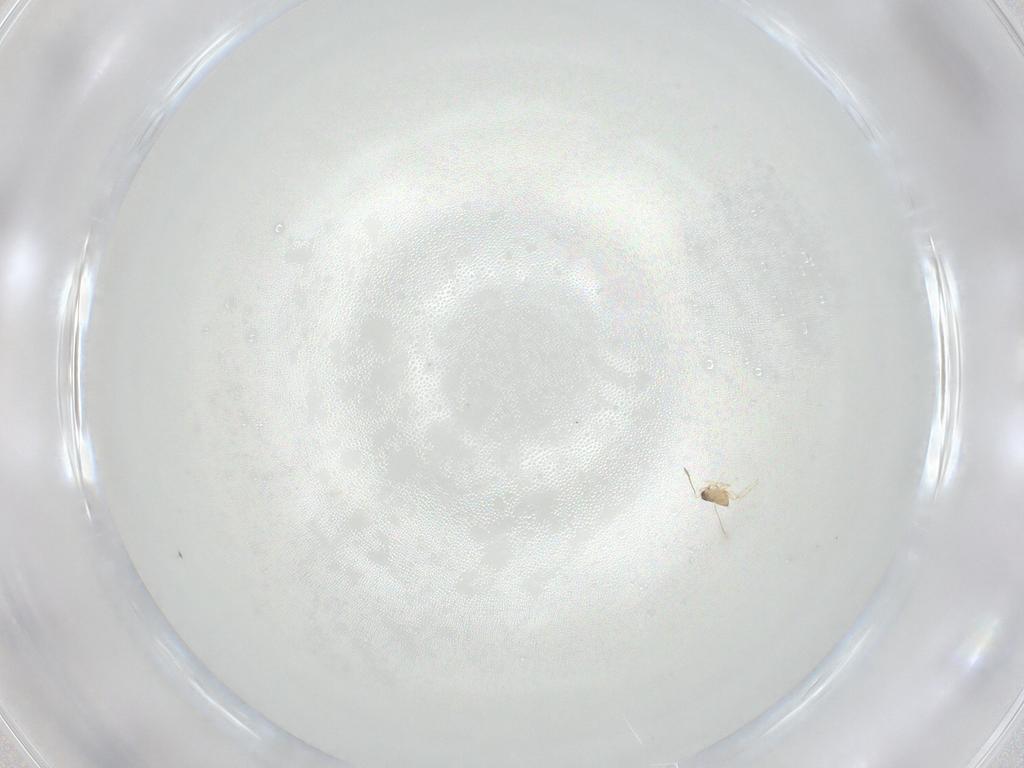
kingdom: Animalia
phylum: Arthropoda
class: Insecta
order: Hymenoptera
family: Mymaridae
